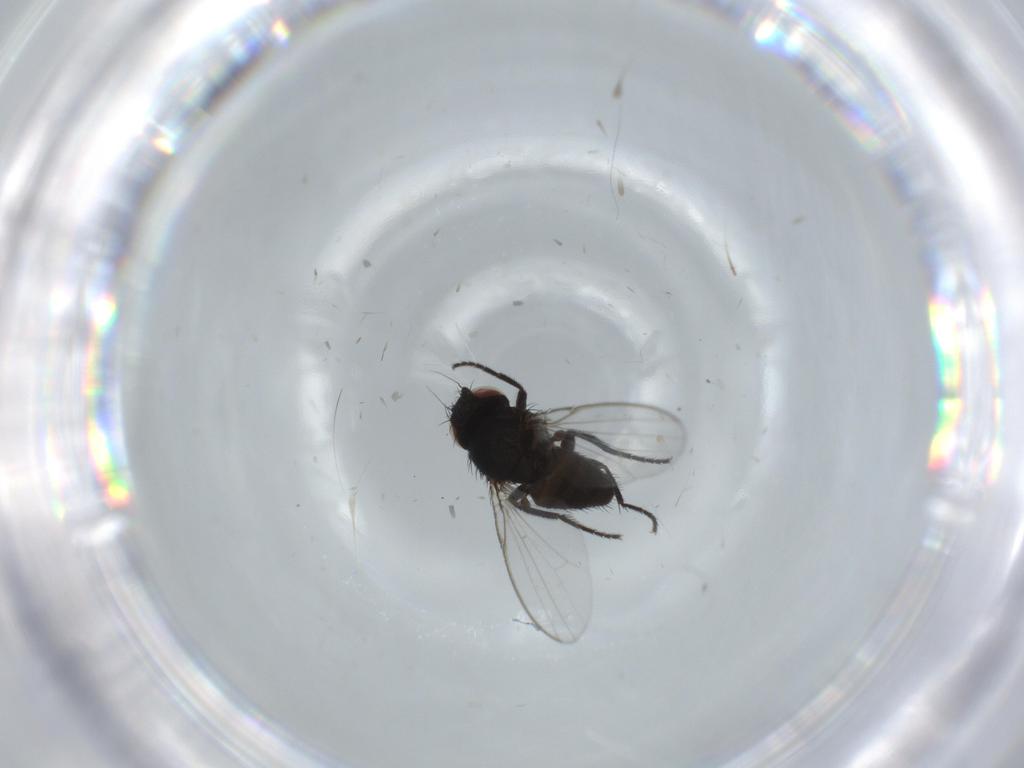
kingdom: Animalia
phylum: Arthropoda
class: Insecta
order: Diptera
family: Milichiidae
